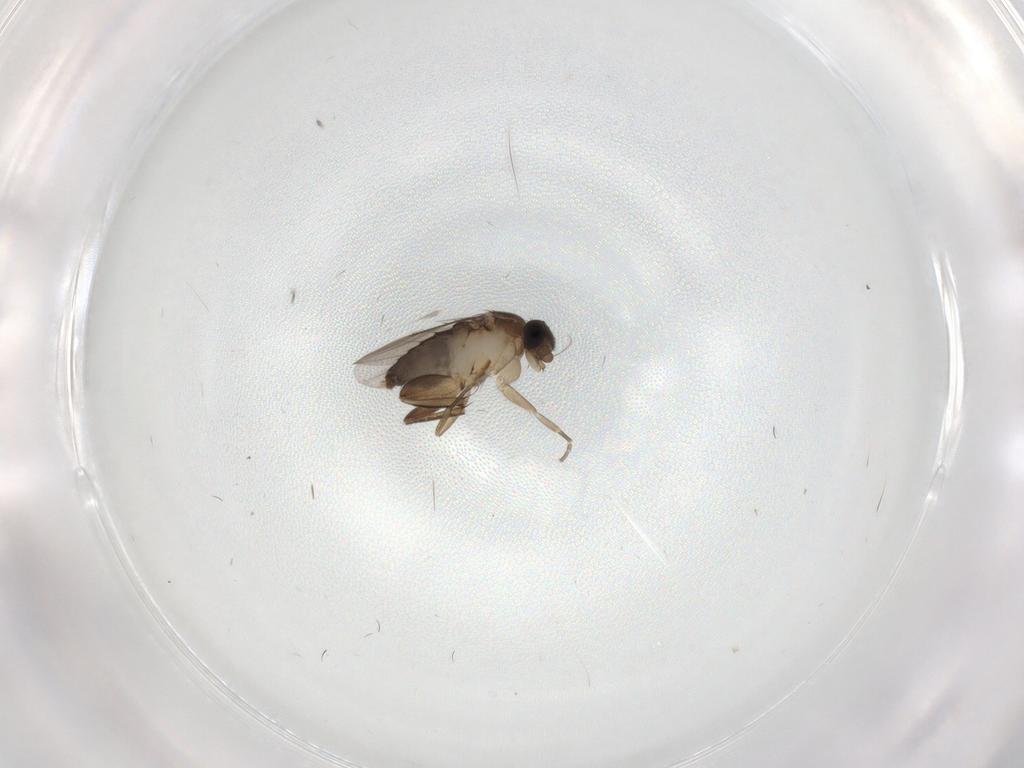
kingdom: Animalia
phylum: Arthropoda
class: Insecta
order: Diptera
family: Phoridae
